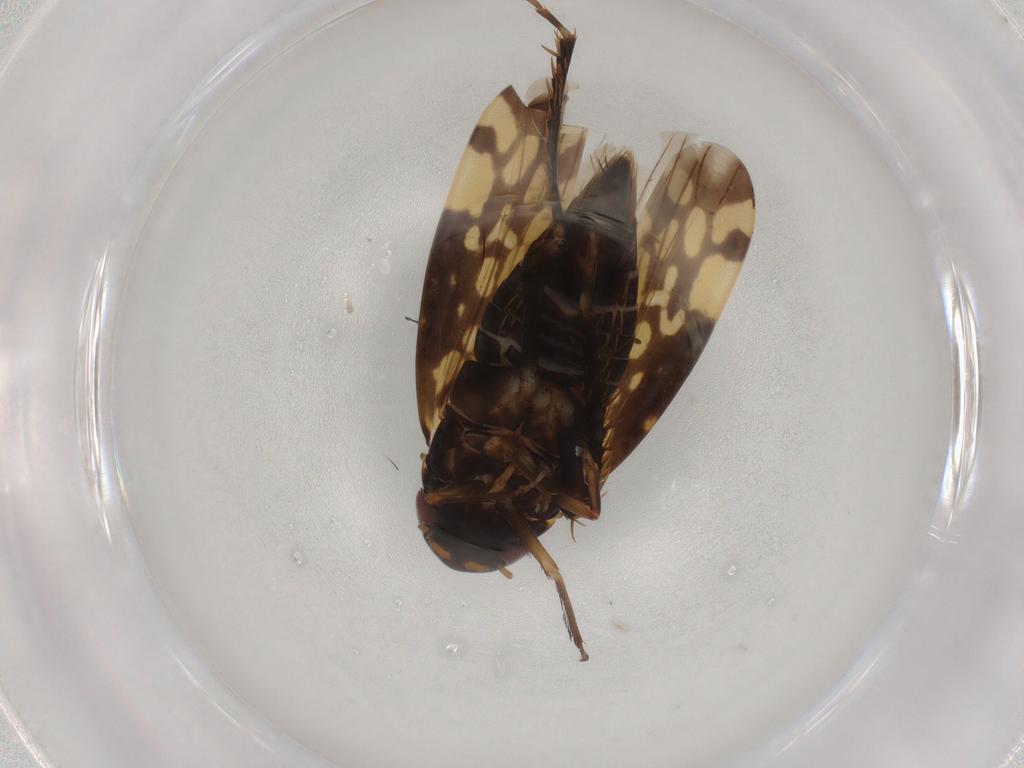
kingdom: Animalia
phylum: Arthropoda
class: Insecta
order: Hemiptera
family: Cicadellidae
